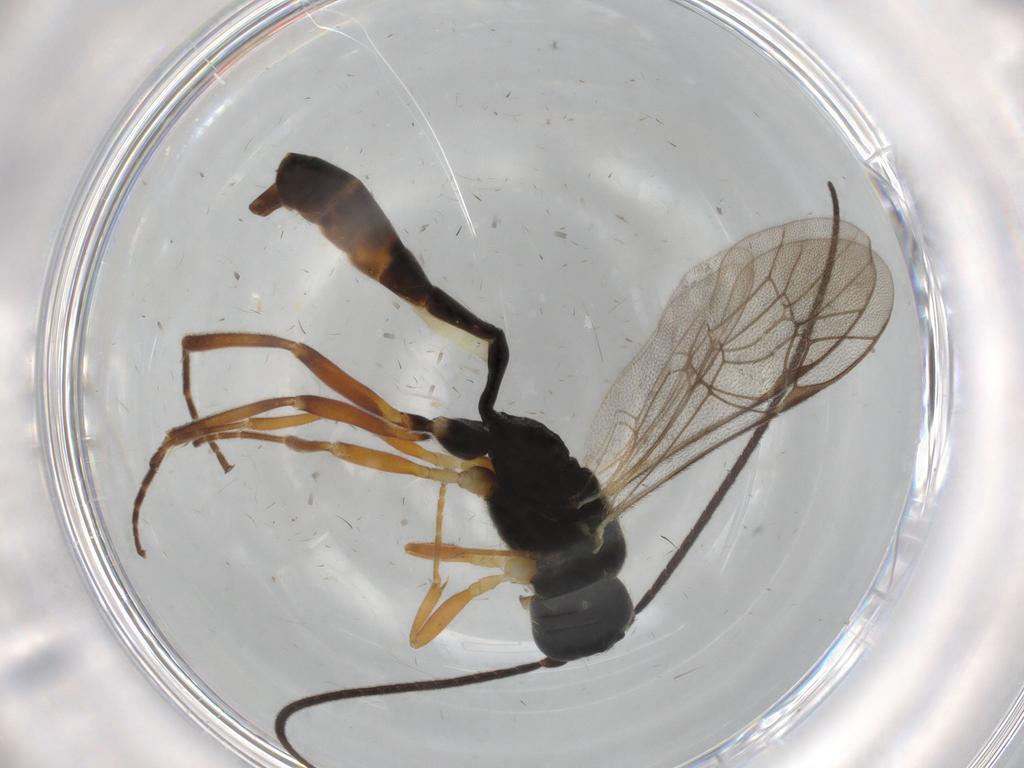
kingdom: Animalia
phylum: Arthropoda
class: Insecta
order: Hymenoptera
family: Ichneumonidae
